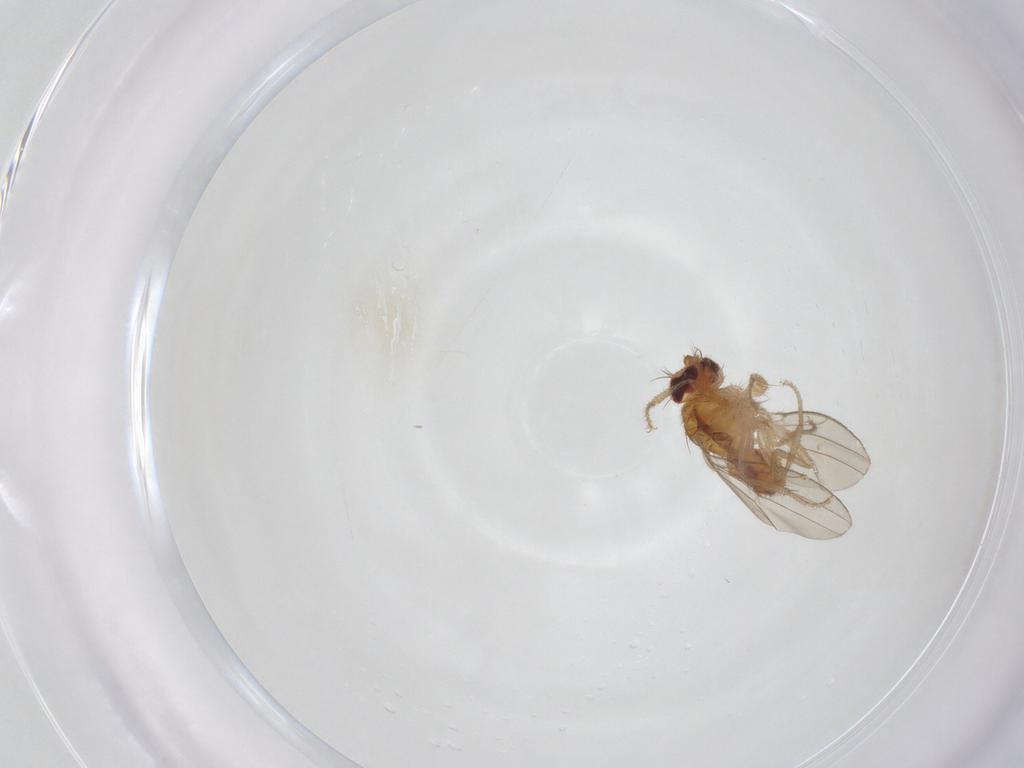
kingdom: Animalia
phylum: Arthropoda
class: Insecta
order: Diptera
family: Drosophilidae
